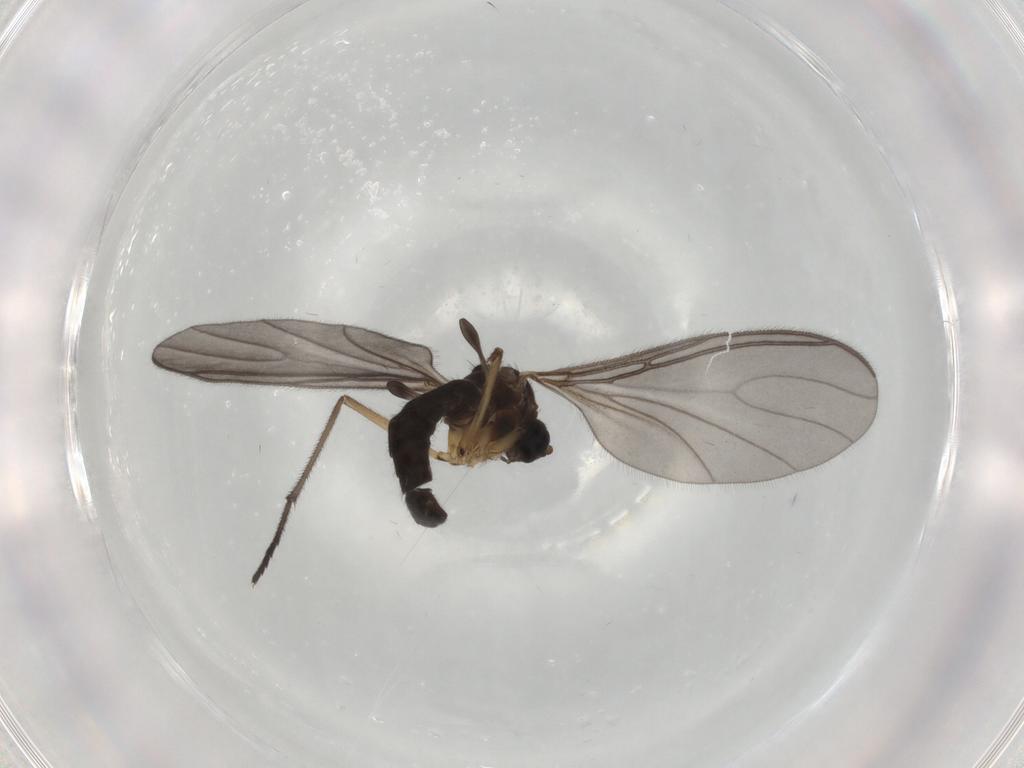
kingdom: Animalia
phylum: Arthropoda
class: Insecta
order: Diptera
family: Sciaridae
